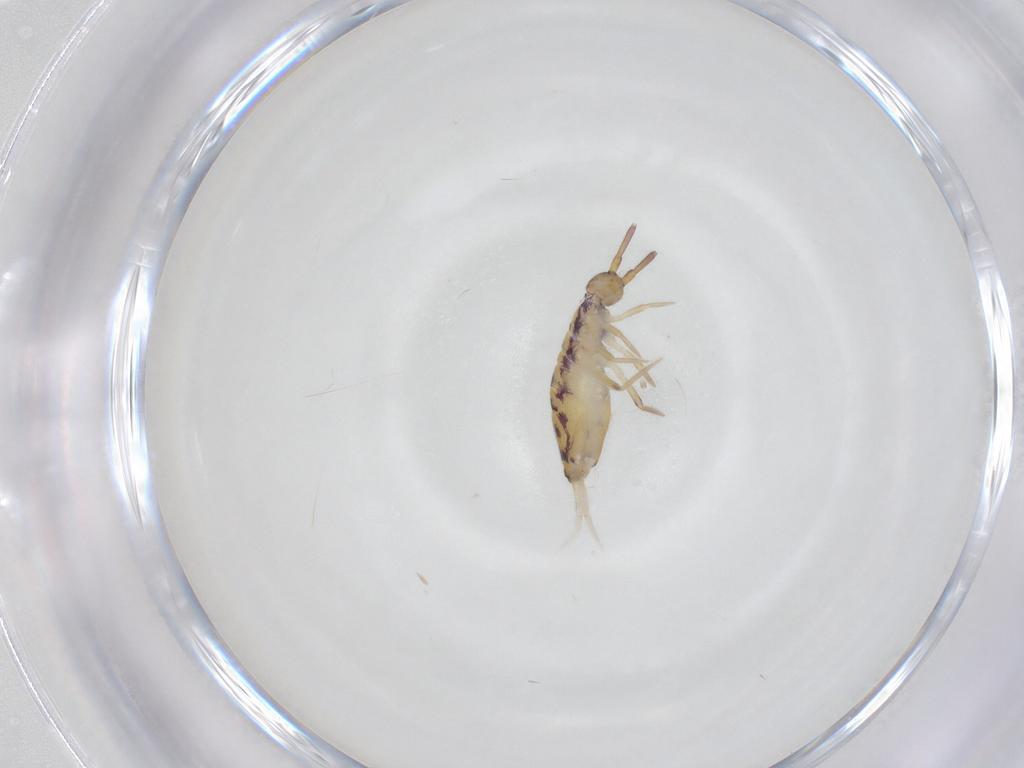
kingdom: Animalia
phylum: Arthropoda
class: Collembola
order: Entomobryomorpha
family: Entomobryidae
